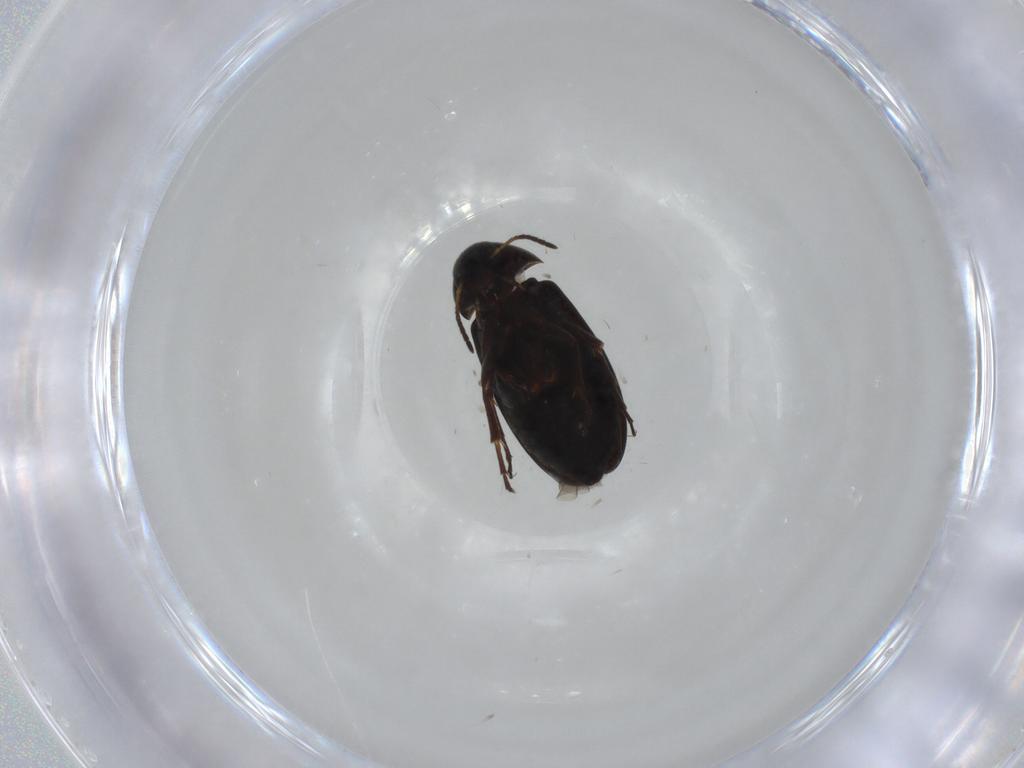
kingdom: Animalia
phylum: Arthropoda
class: Insecta
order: Coleoptera
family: Scraptiidae
